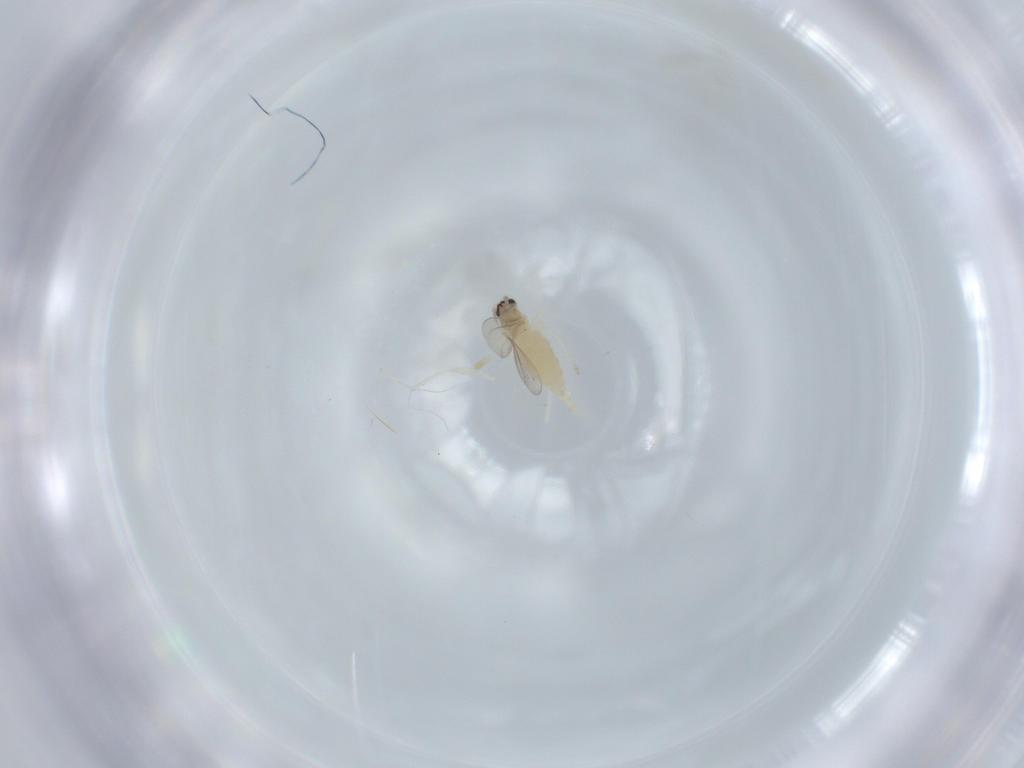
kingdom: Animalia
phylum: Arthropoda
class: Insecta
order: Diptera
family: Cecidomyiidae
